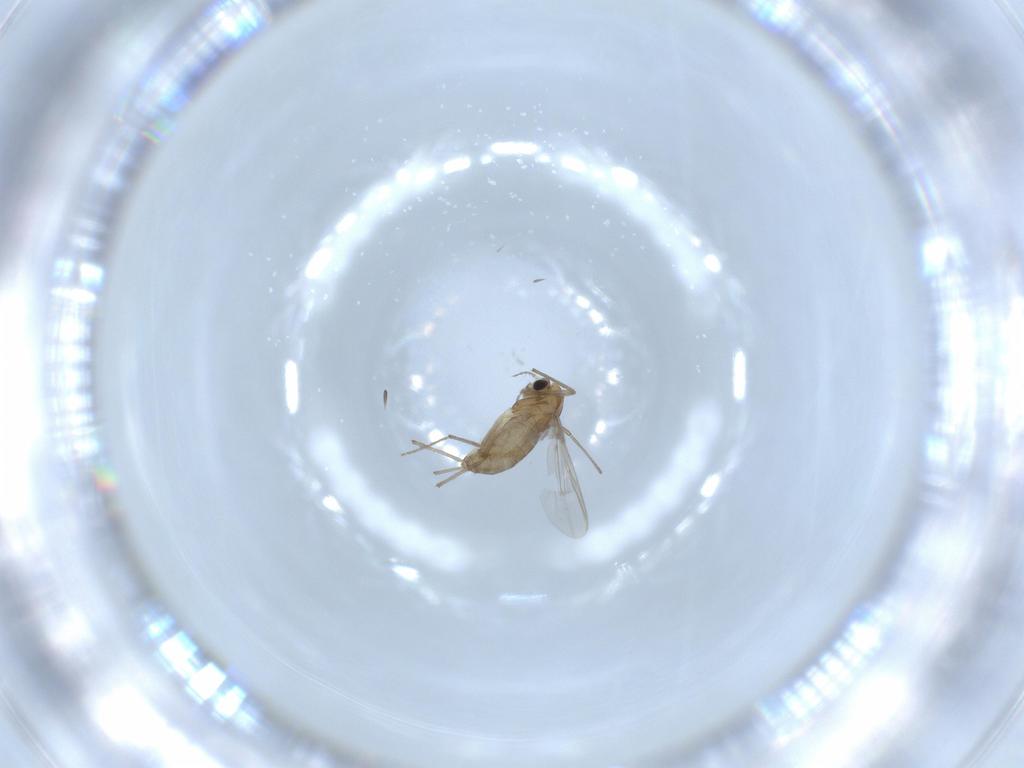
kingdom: Animalia
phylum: Arthropoda
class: Insecta
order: Diptera
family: Chironomidae
